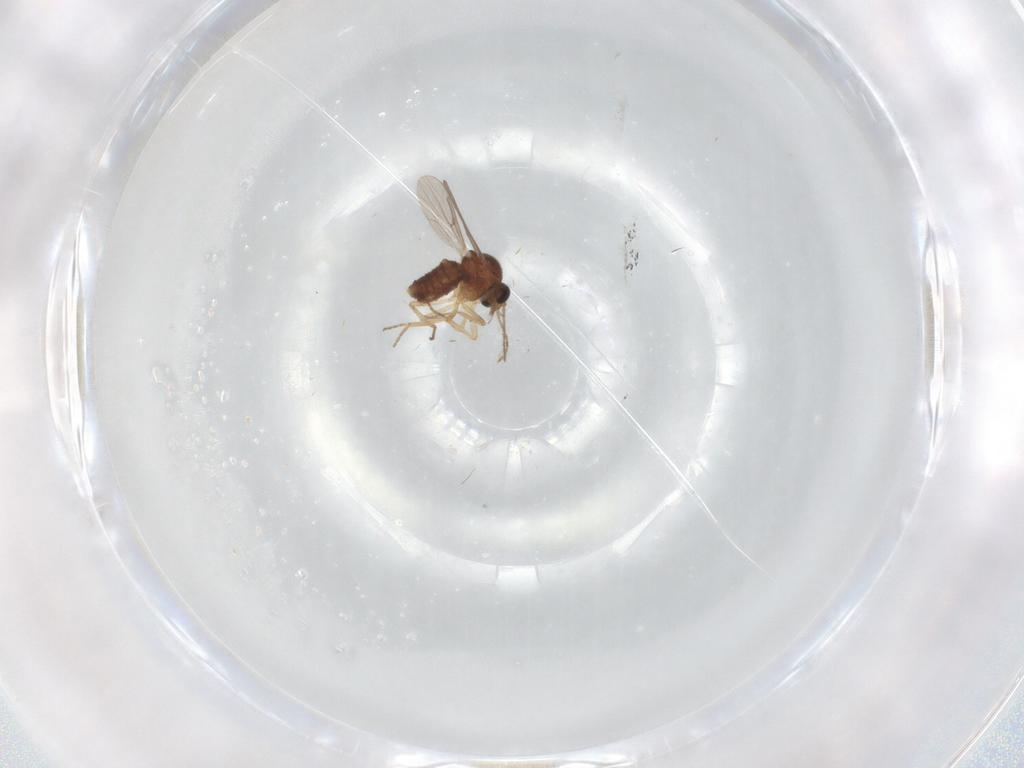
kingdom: Animalia
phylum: Arthropoda
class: Insecta
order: Diptera
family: Ceratopogonidae
